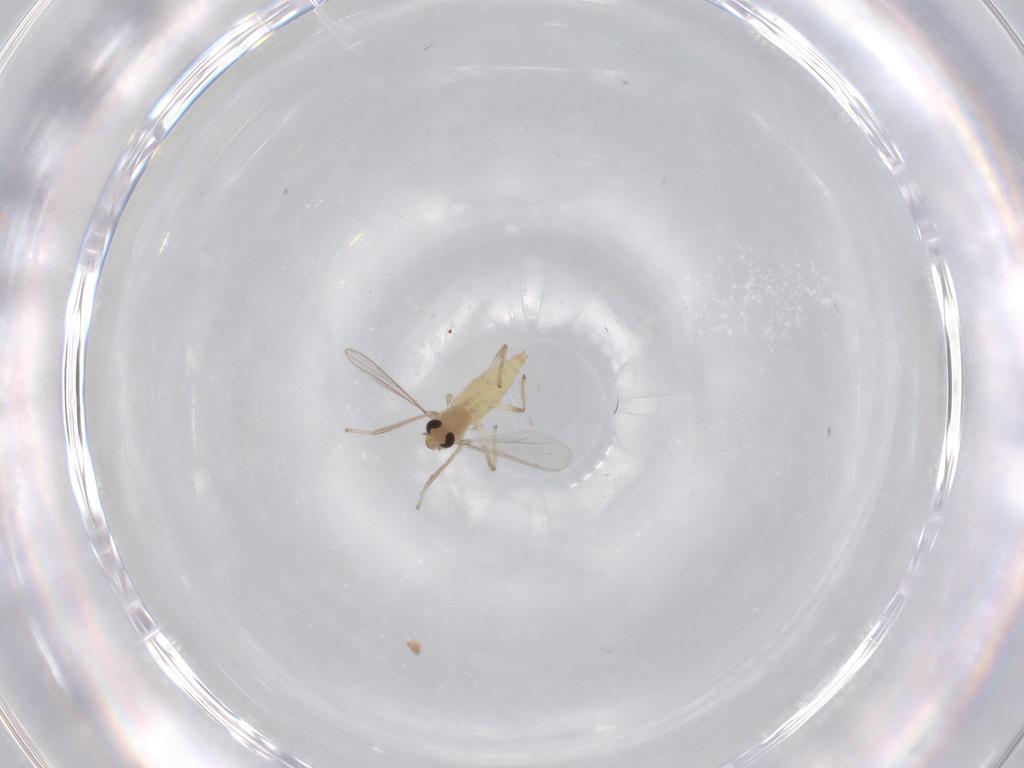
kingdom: Animalia
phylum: Arthropoda
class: Insecta
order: Diptera
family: Chironomidae
